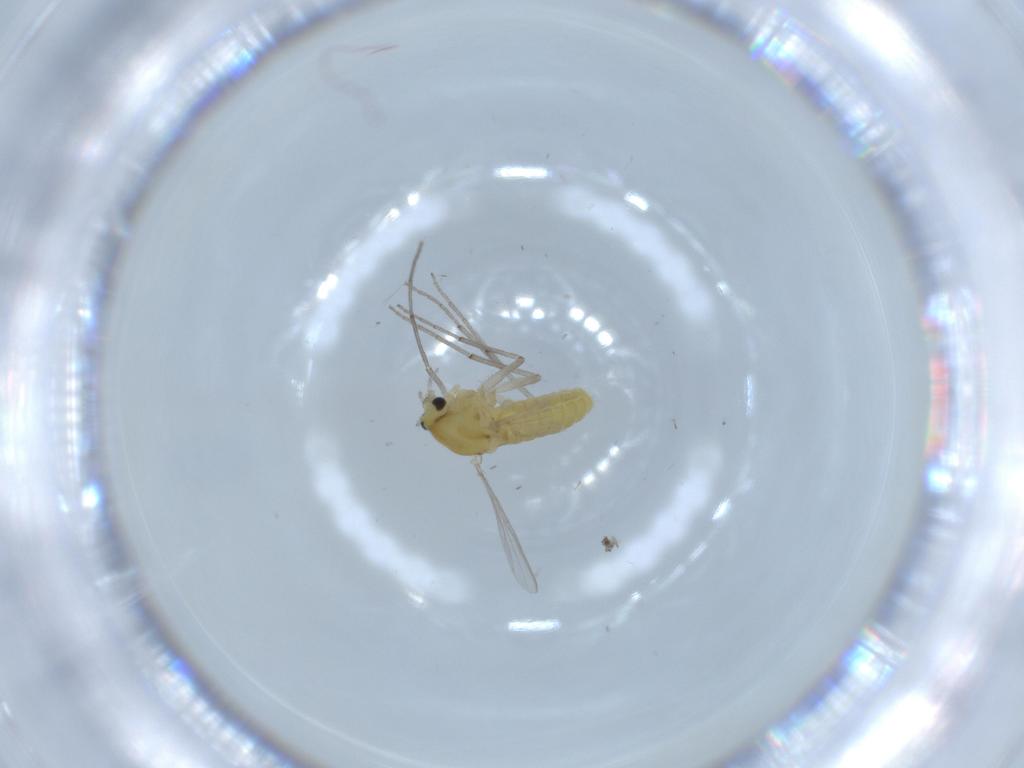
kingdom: Animalia
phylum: Arthropoda
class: Insecta
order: Diptera
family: Chironomidae
